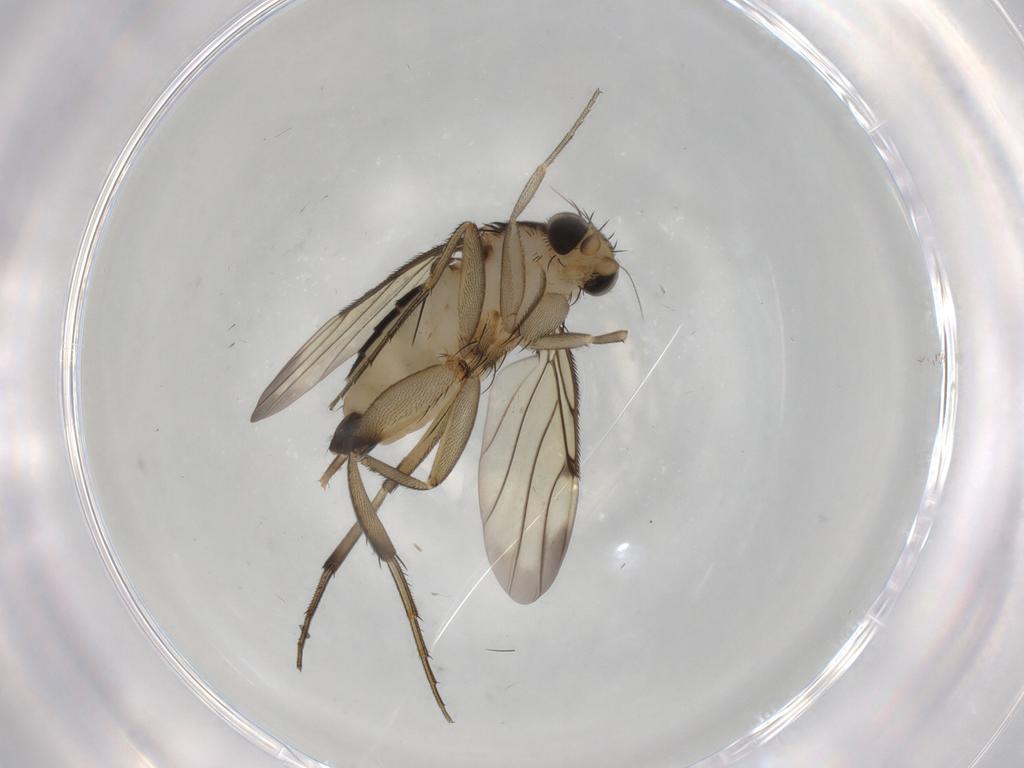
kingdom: Animalia
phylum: Arthropoda
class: Insecta
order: Diptera
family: Phoridae
